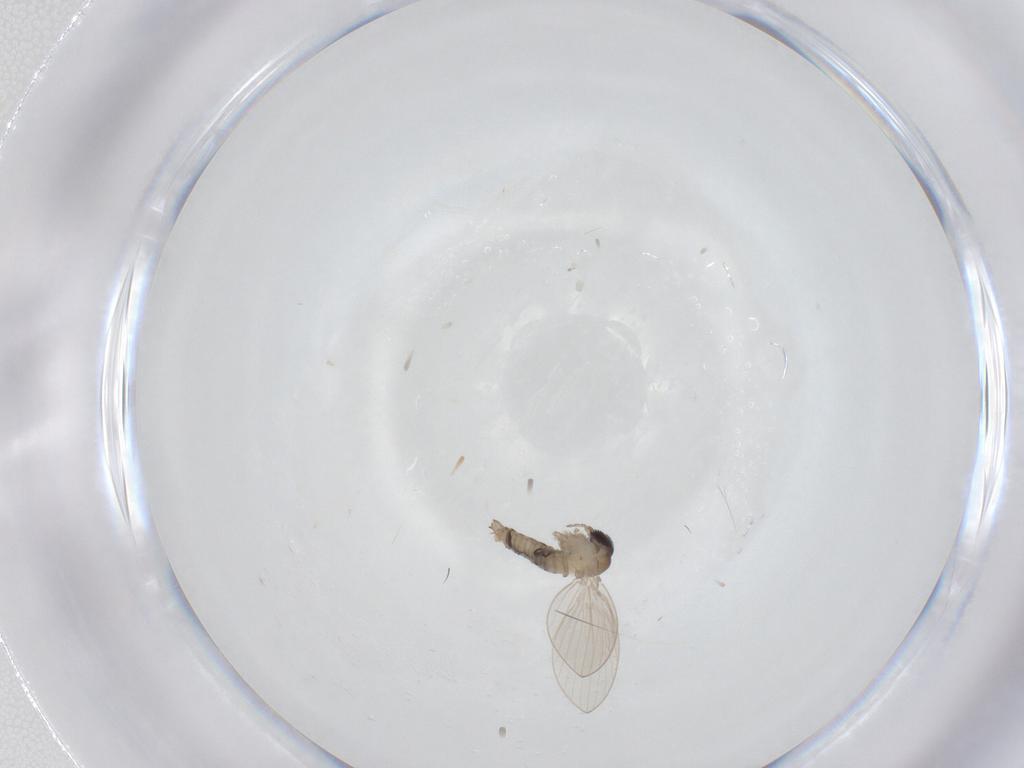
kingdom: Animalia
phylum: Arthropoda
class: Insecta
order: Diptera
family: Psychodidae
